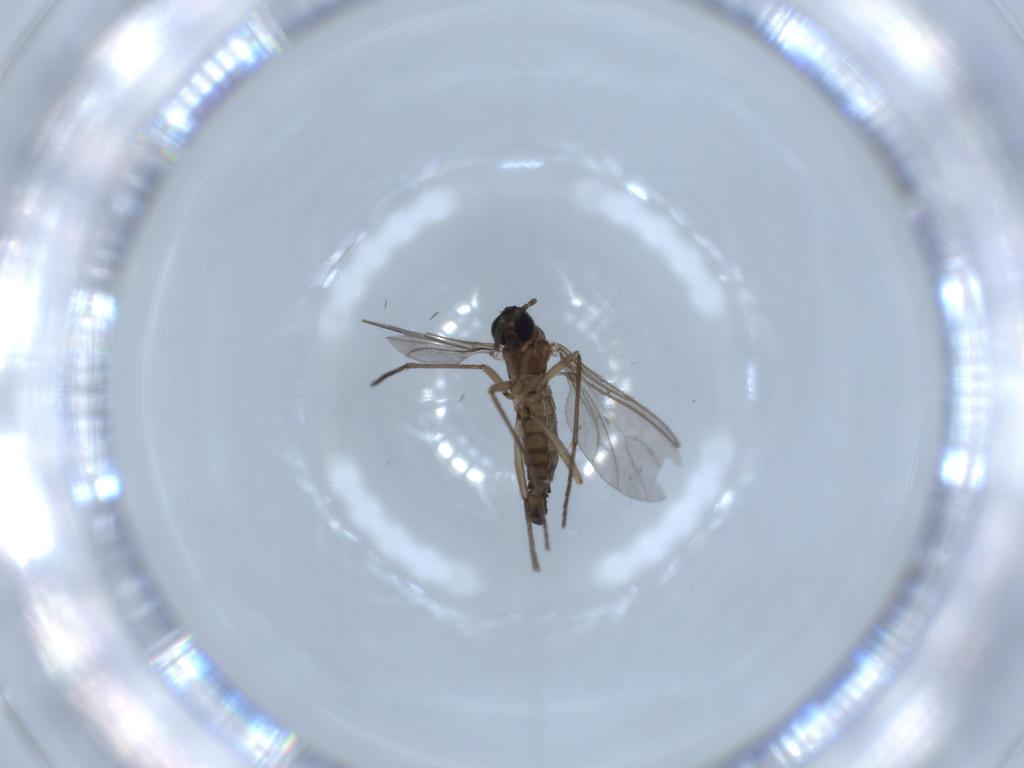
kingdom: Animalia
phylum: Arthropoda
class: Insecta
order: Diptera
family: Sciaridae
